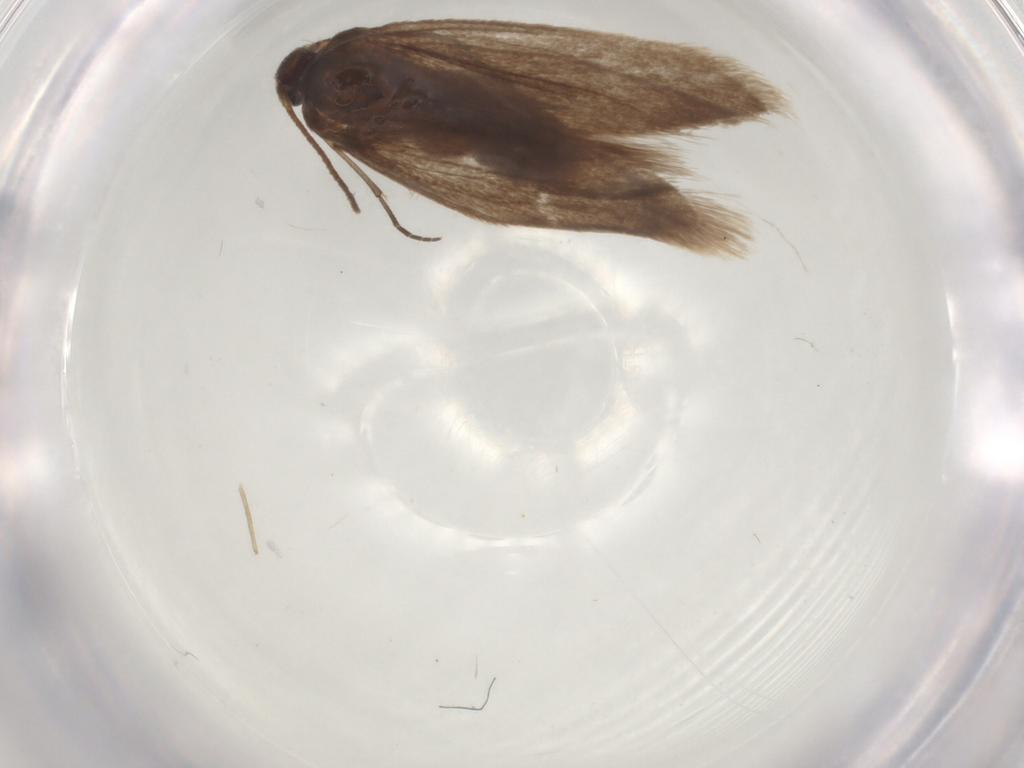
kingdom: Animalia
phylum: Arthropoda
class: Insecta
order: Lepidoptera
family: Limacodidae
